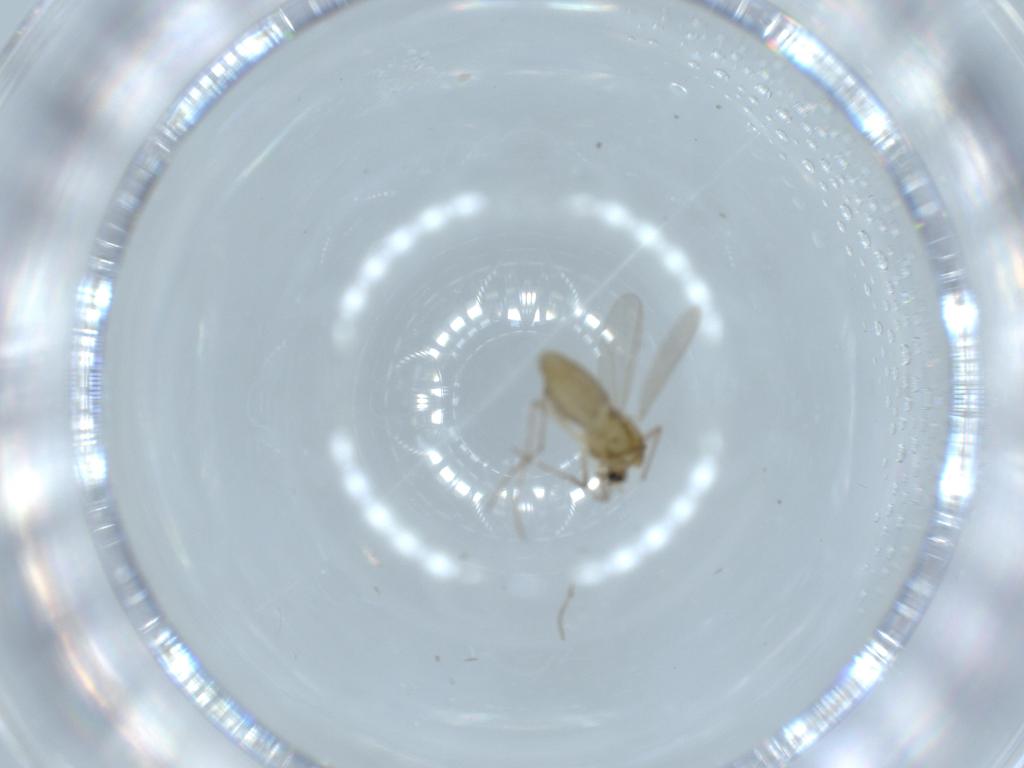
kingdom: Animalia
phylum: Arthropoda
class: Insecta
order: Diptera
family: Chironomidae
